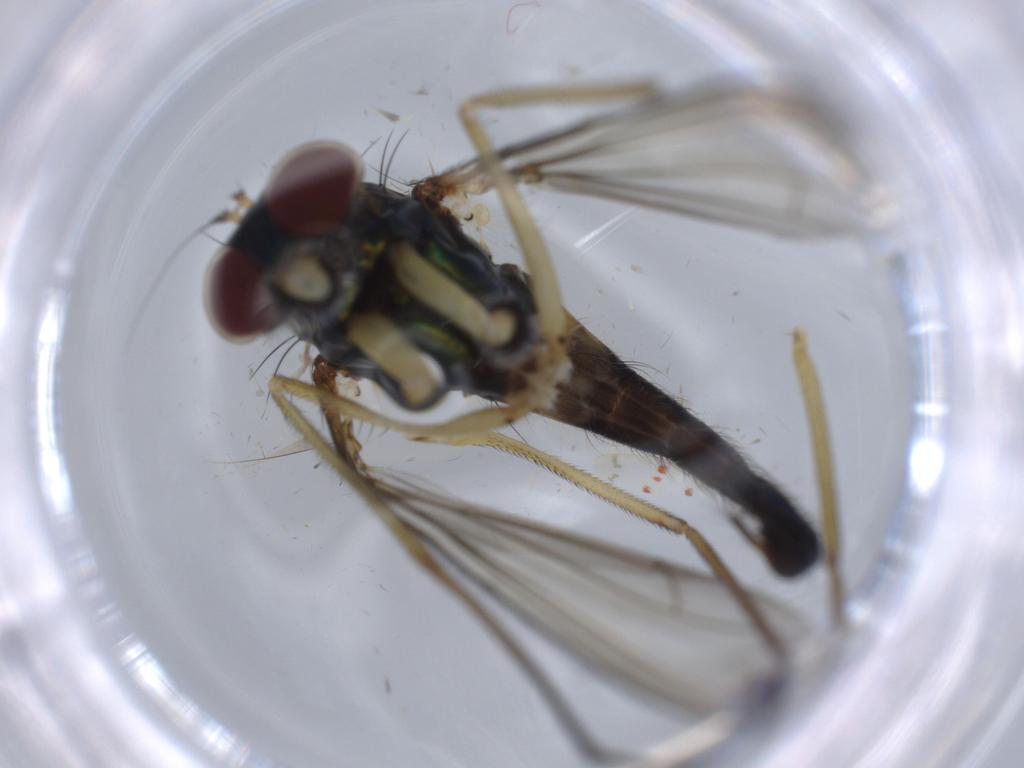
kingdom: Animalia
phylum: Arthropoda
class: Insecta
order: Diptera
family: Dolichopodidae
